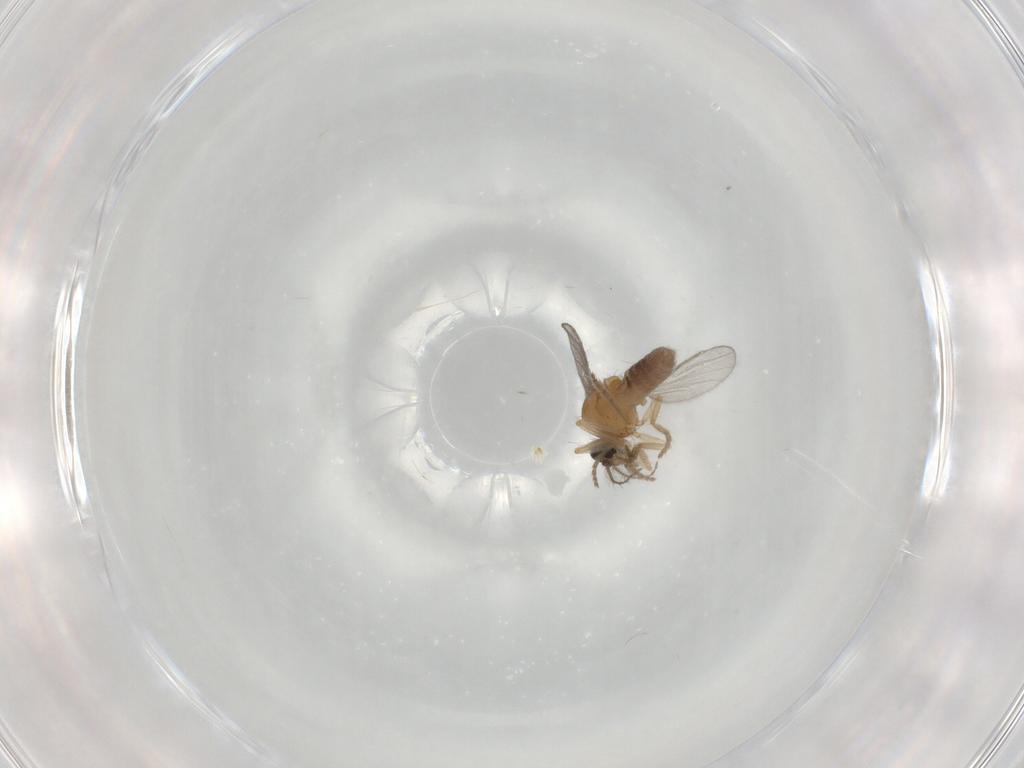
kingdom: Animalia
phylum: Arthropoda
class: Insecta
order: Diptera
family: Ceratopogonidae
